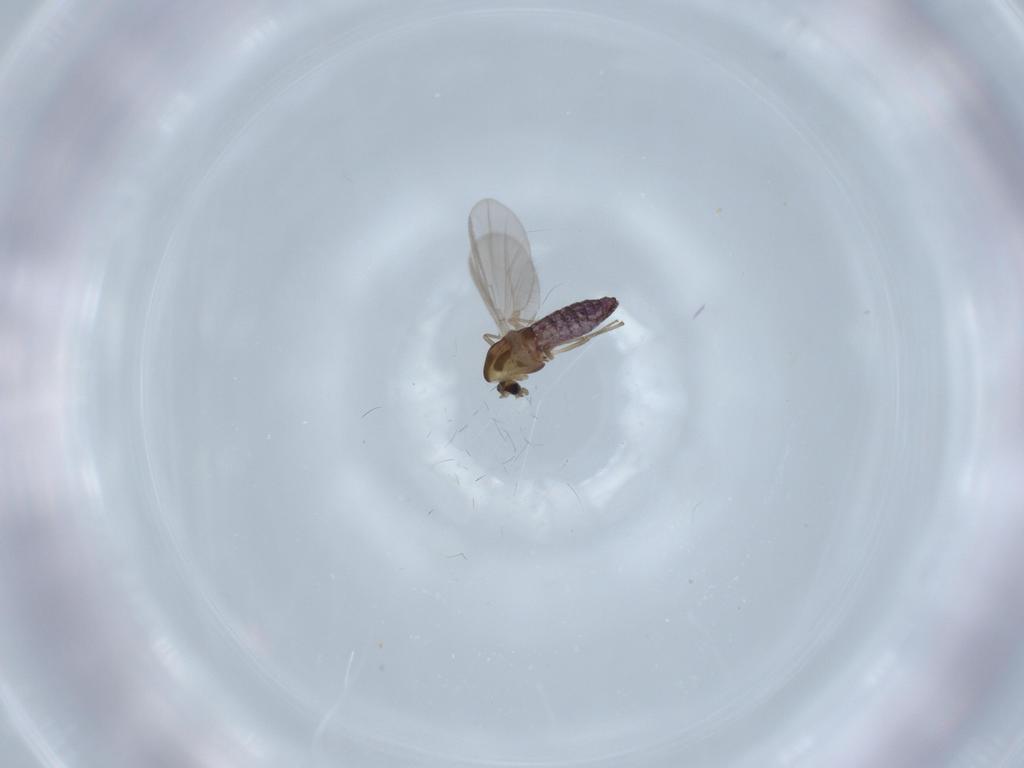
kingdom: Animalia
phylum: Arthropoda
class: Insecta
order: Diptera
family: Chironomidae
